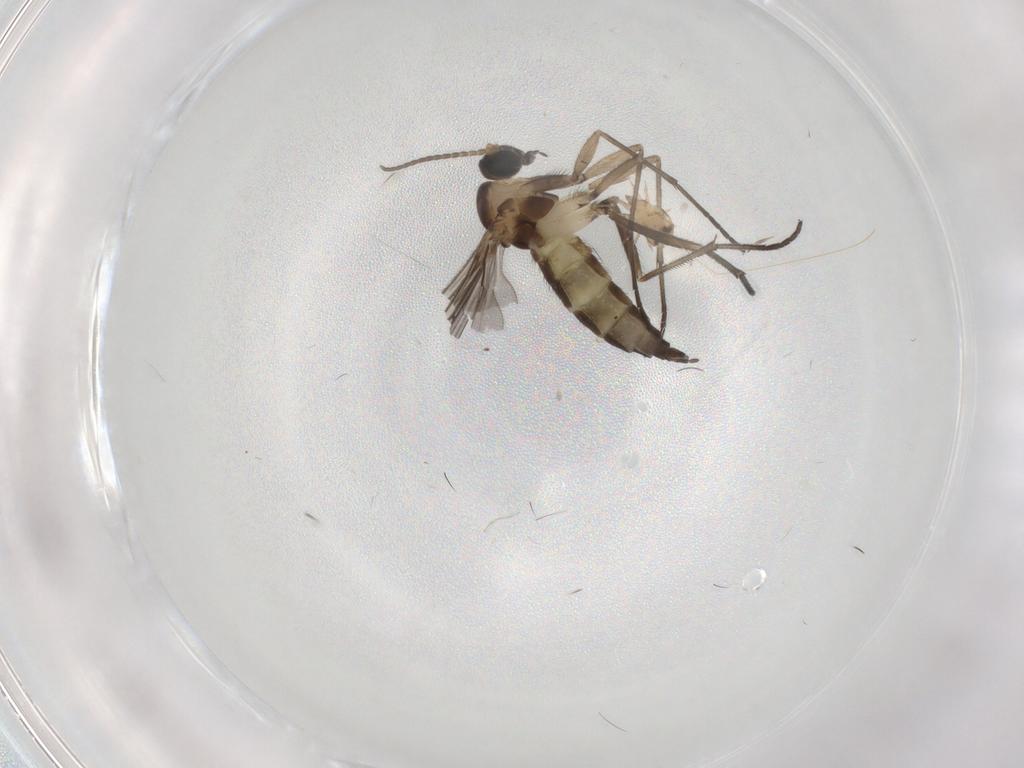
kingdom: Animalia
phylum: Arthropoda
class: Insecta
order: Diptera
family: Sciaridae
